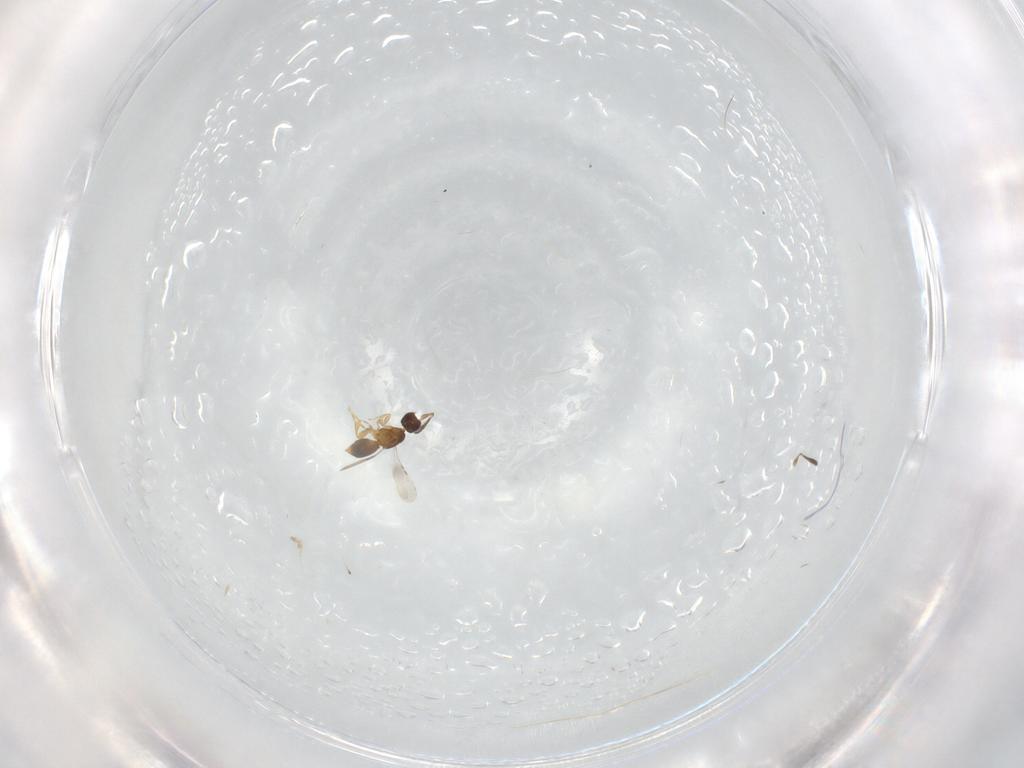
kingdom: Animalia
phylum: Arthropoda
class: Insecta
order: Hymenoptera
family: Ceraphronidae
